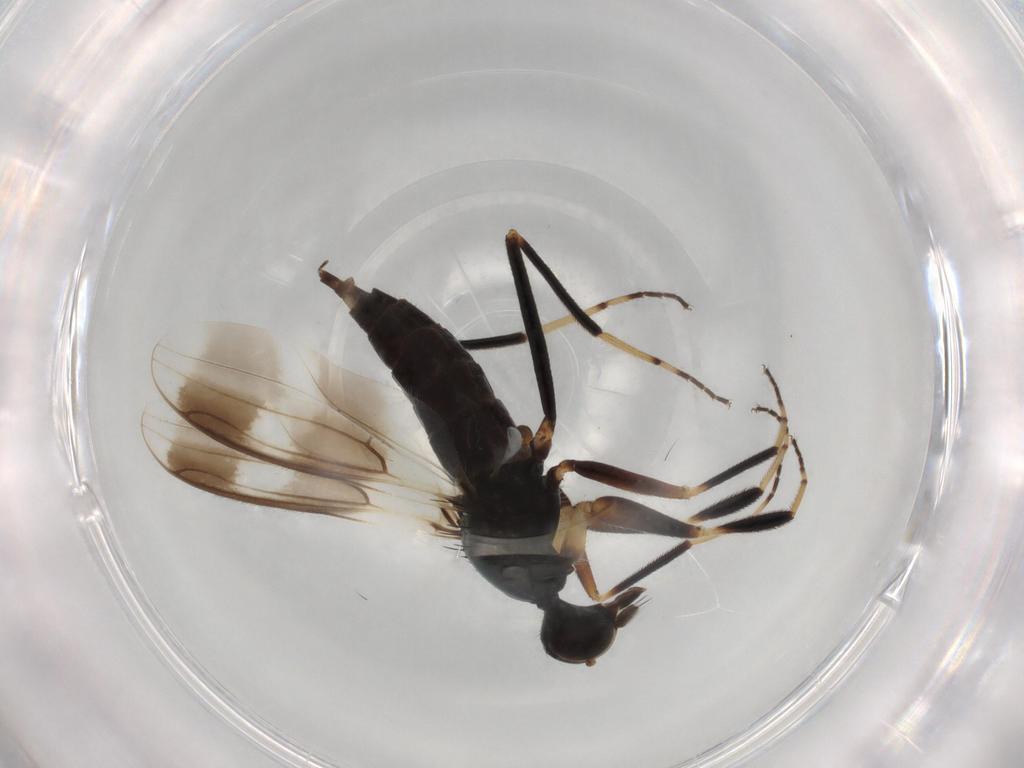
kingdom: Animalia
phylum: Arthropoda
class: Insecta
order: Diptera
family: Hybotidae
